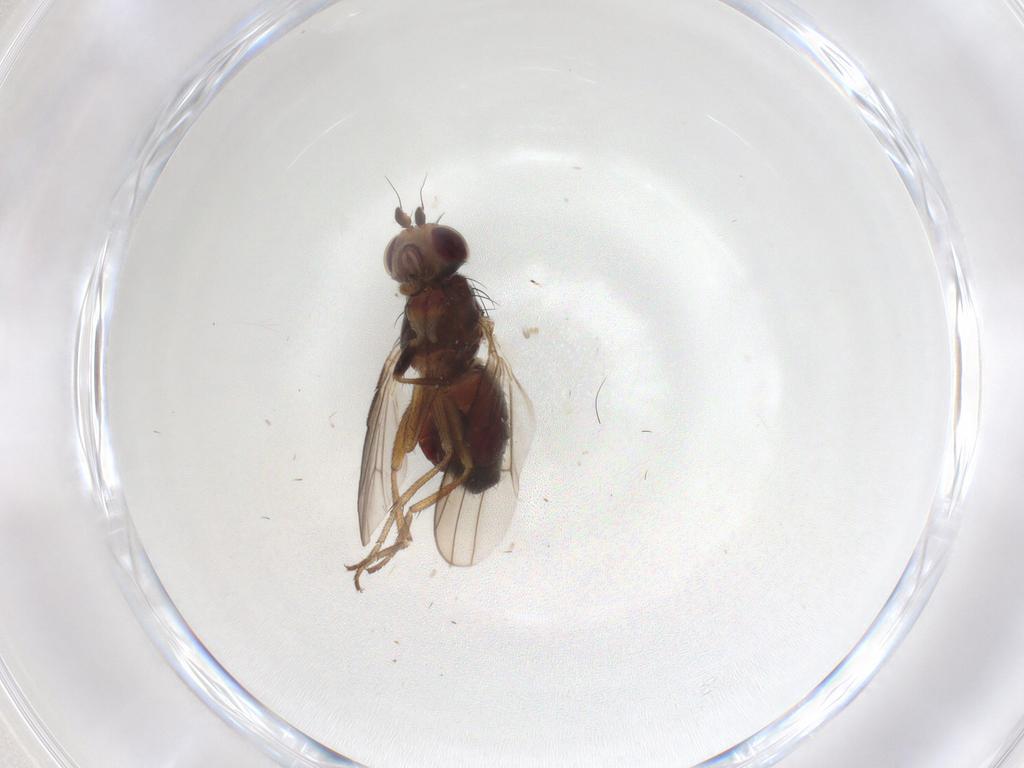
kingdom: Animalia
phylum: Arthropoda
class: Insecta
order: Diptera
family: Heleomyzidae
